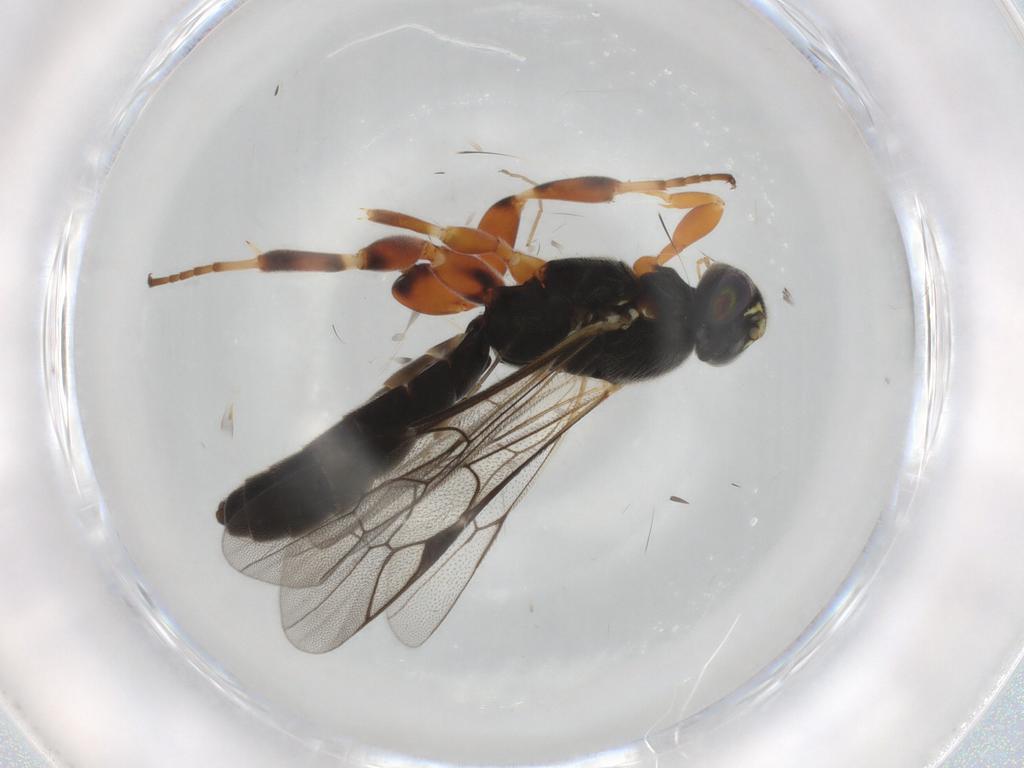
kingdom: Animalia
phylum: Arthropoda
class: Insecta
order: Hymenoptera
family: Ichneumonidae
